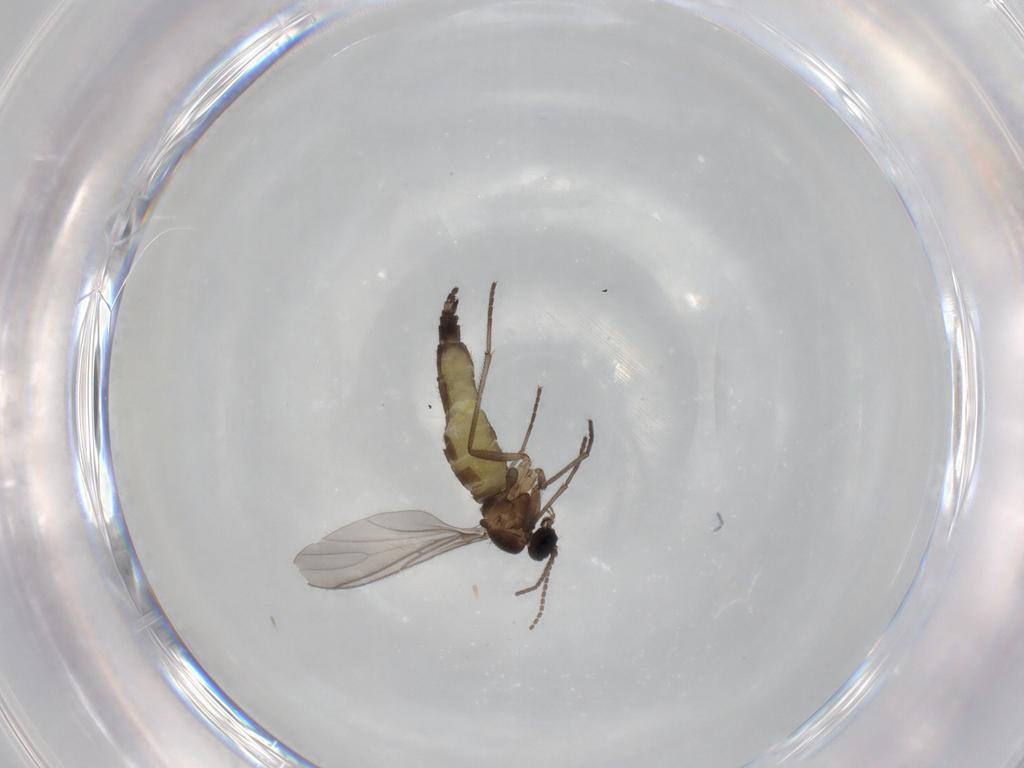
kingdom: Animalia
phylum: Arthropoda
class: Insecta
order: Diptera
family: Sciaridae
